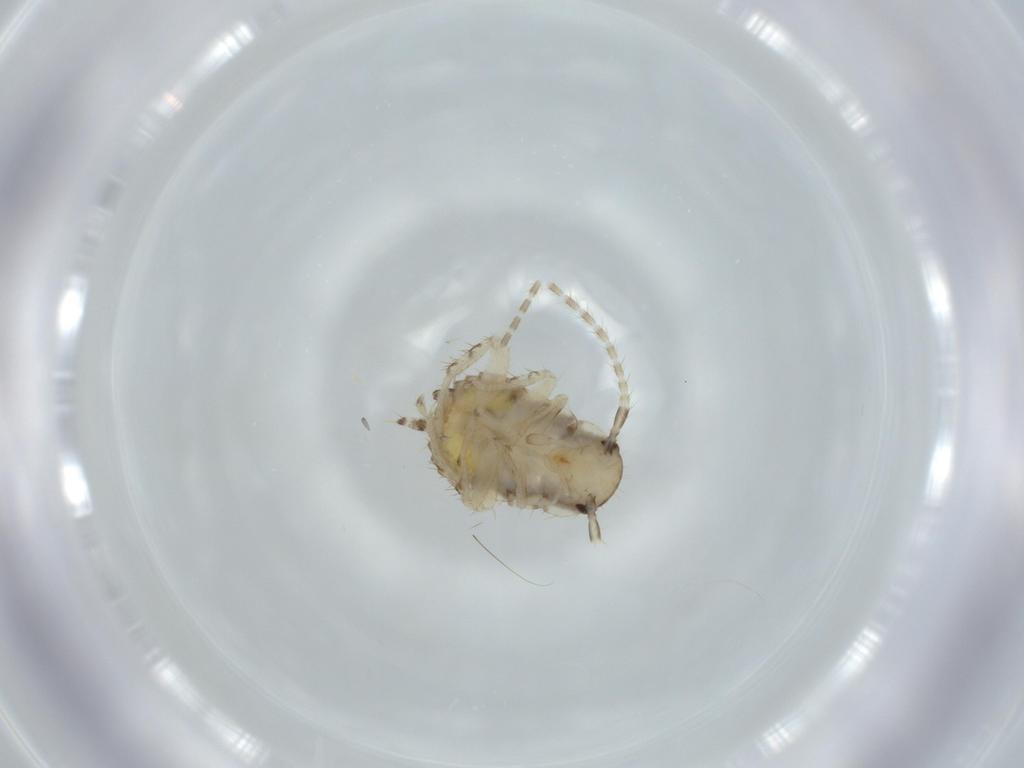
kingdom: Animalia
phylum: Arthropoda
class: Insecta
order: Blattodea
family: Ectobiidae
